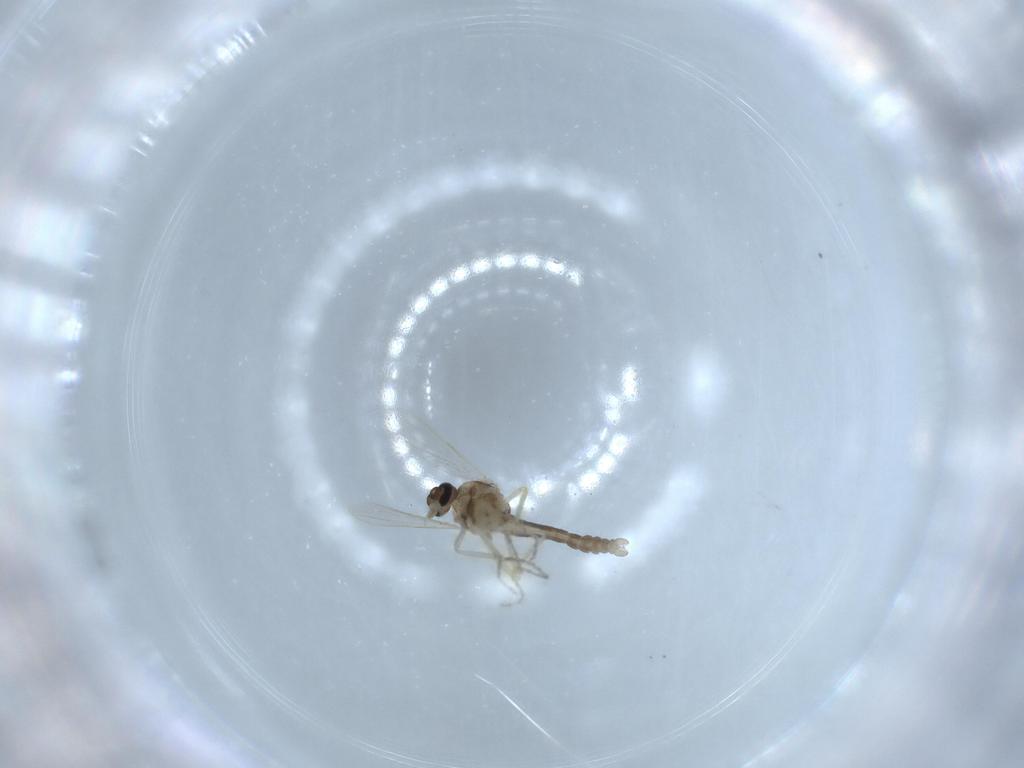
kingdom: Animalia
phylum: Arthropoda
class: Insecta
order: Diptera
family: Ceratopogonidae
